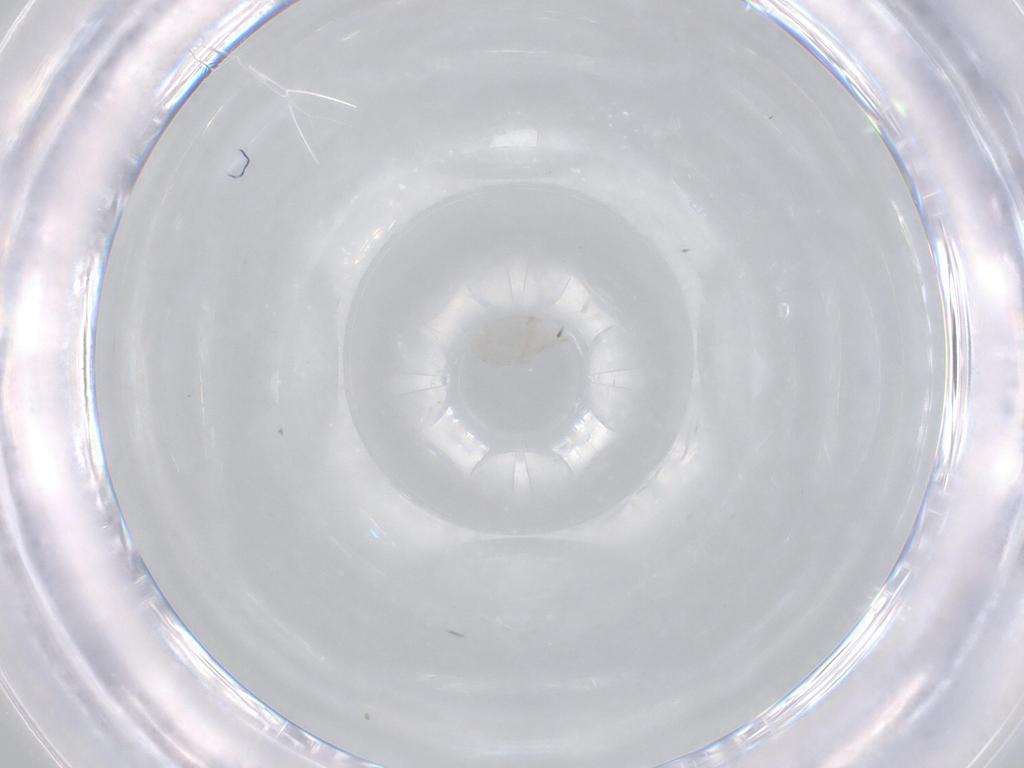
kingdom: Animalia
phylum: Arthropoda
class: Insecta
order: Diptera
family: Cecidomyiidae
